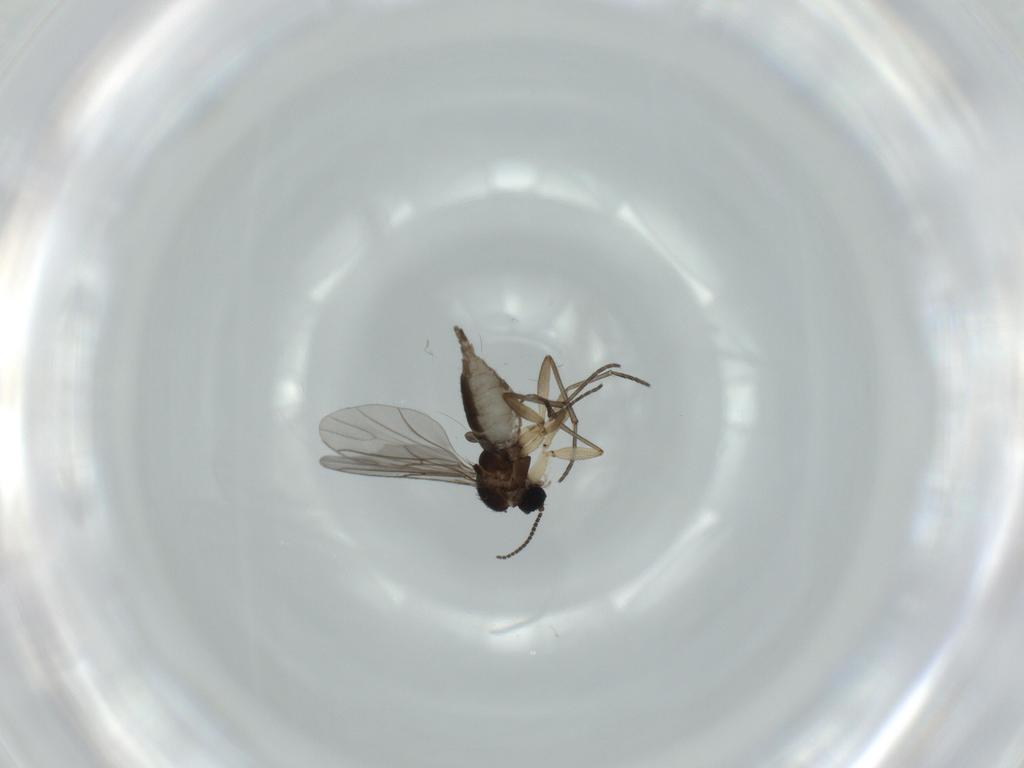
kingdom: Animalia
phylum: Arthropoda
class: Insecta
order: Diptera
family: Sciaridae
